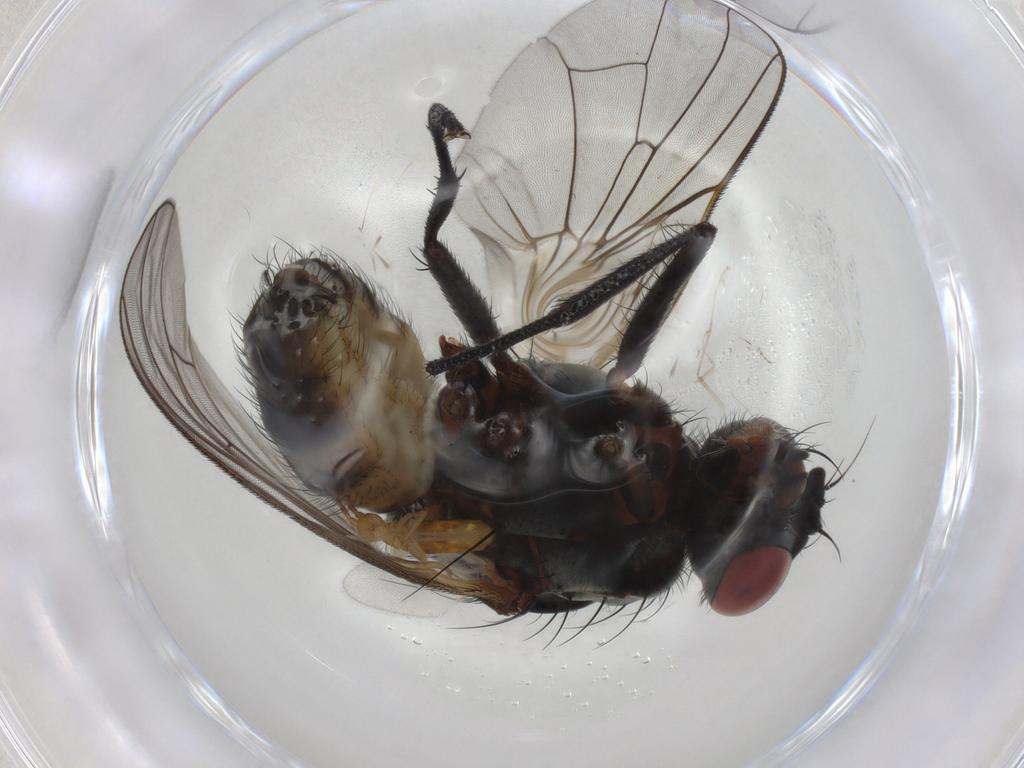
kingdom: Animalia
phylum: Arthropoda
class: Insecta
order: Diptera
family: Anthomyiidae
